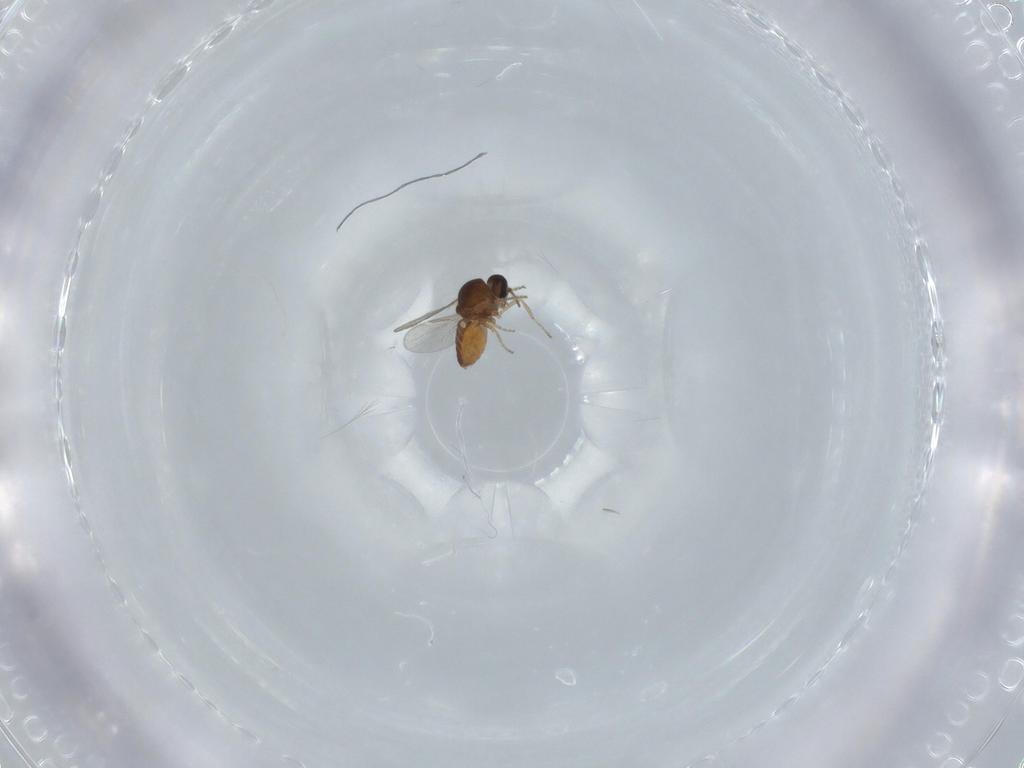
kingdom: Animalia
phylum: Arthropoda
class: Insecta
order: Diptera
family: Ceratopogonidae
